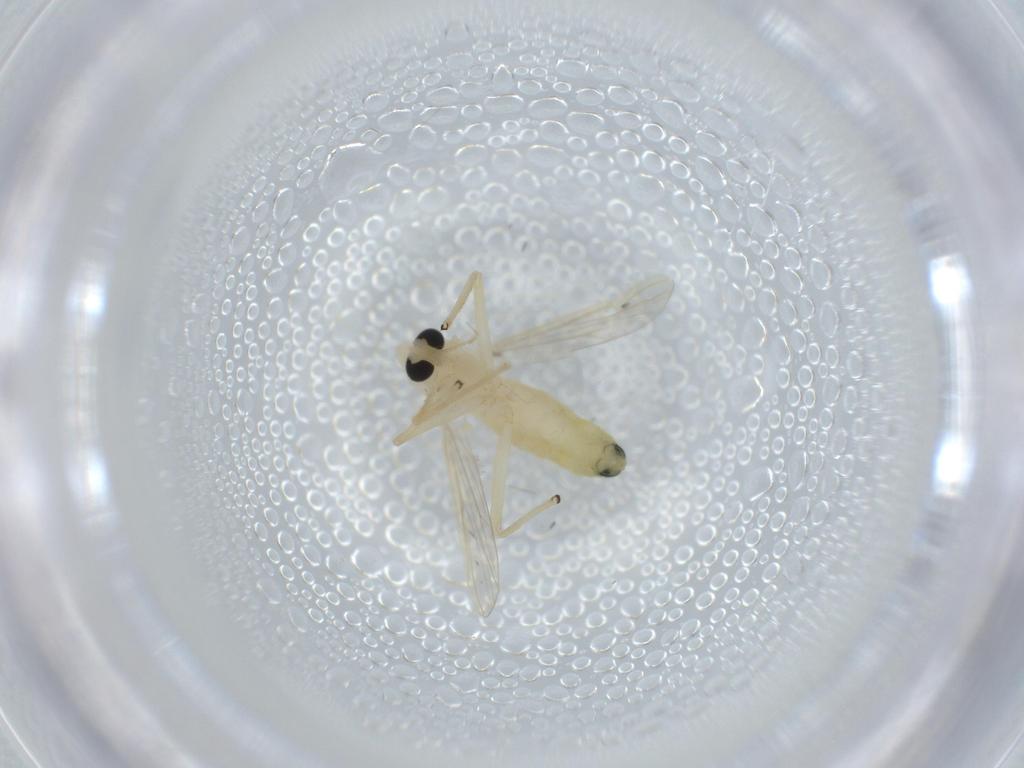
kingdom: Animalia
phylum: Arthropoda
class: Insecta
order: Diptera
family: Chironomidae
